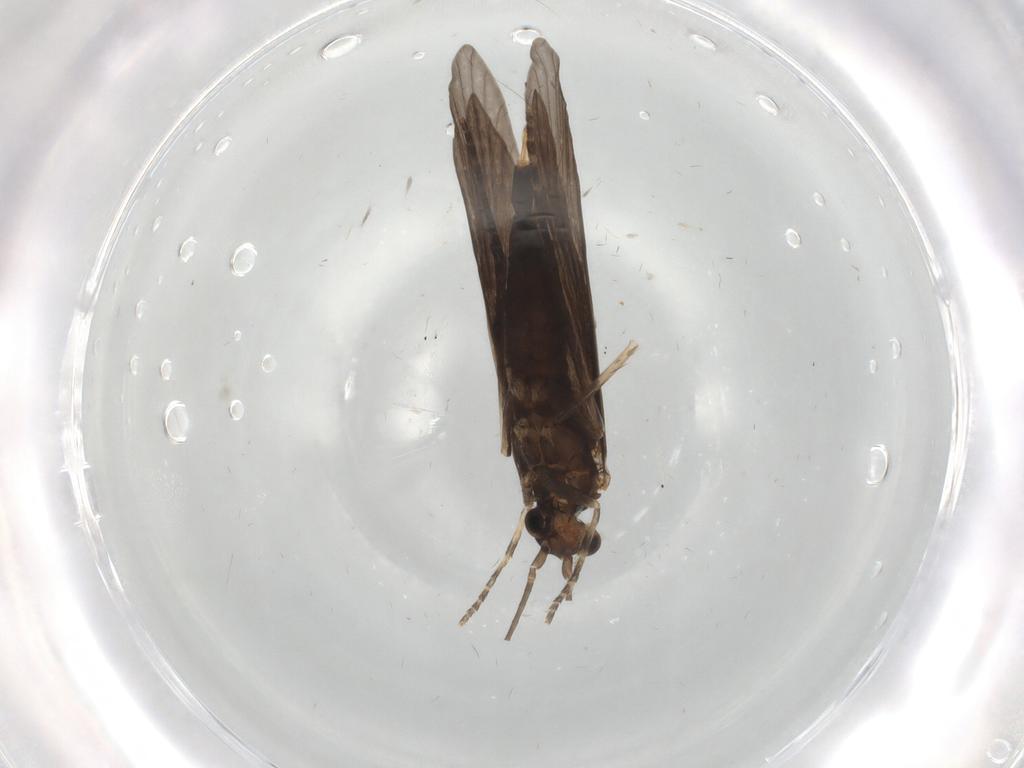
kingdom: Animalia
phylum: Arthropoda
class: Insecta
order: Trichoptera
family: Xiphocentronidae
